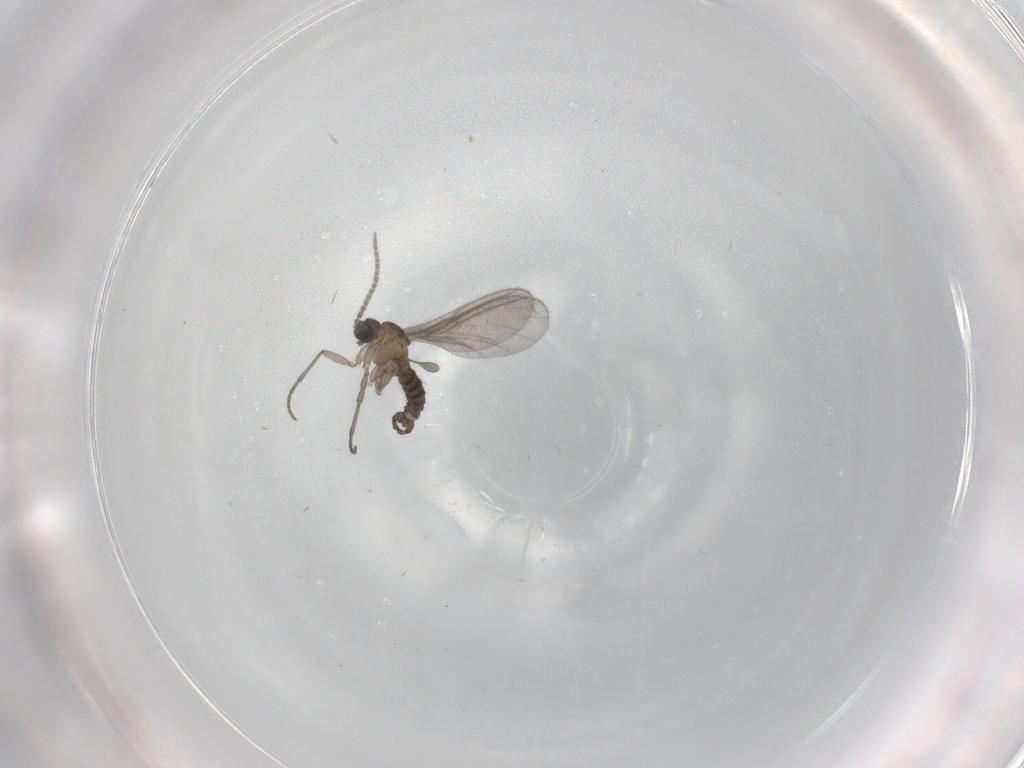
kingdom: Animalia
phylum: Arthropoda
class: Insecta
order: Diptera
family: Sciaridae
